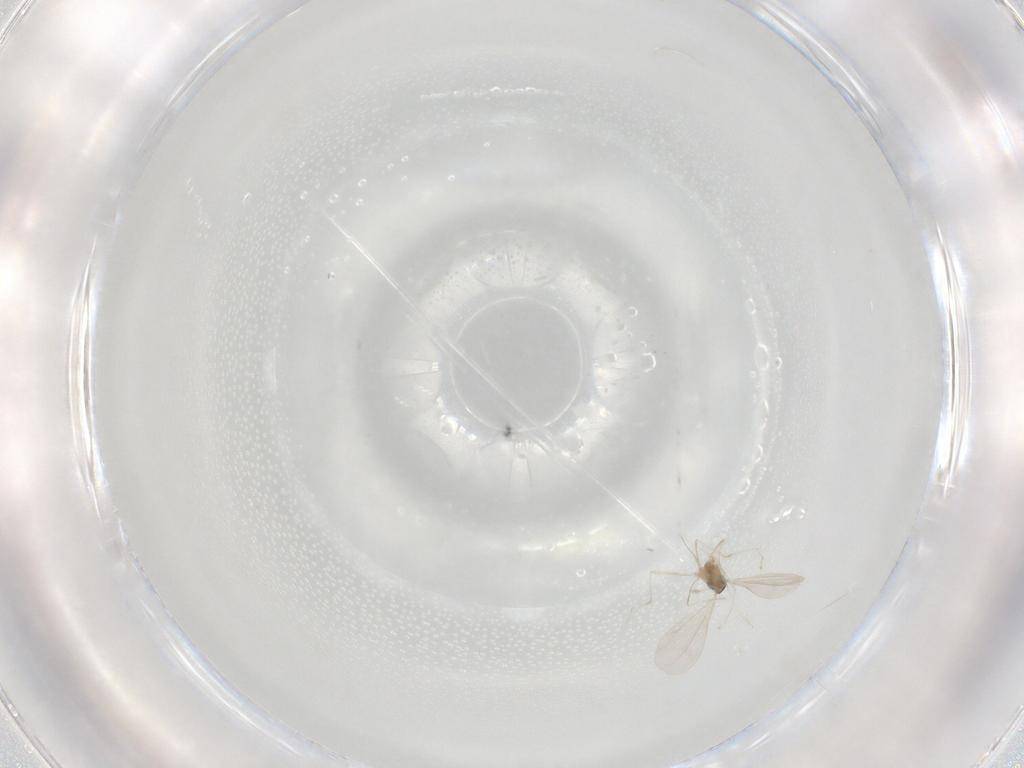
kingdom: Animalia
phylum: Arthropoda
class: Insecta
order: Diptera
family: Cecidomyiidae
